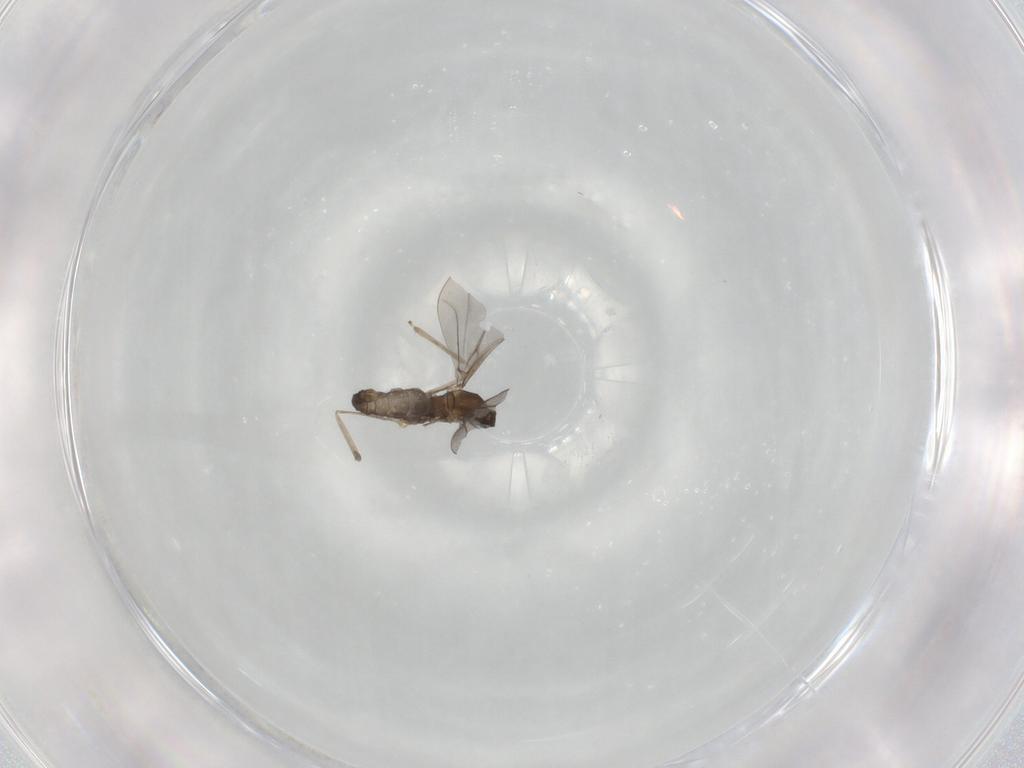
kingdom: Animalia
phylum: Arthropoda
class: Insecta
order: Diptera
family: Cecidomyiidae
